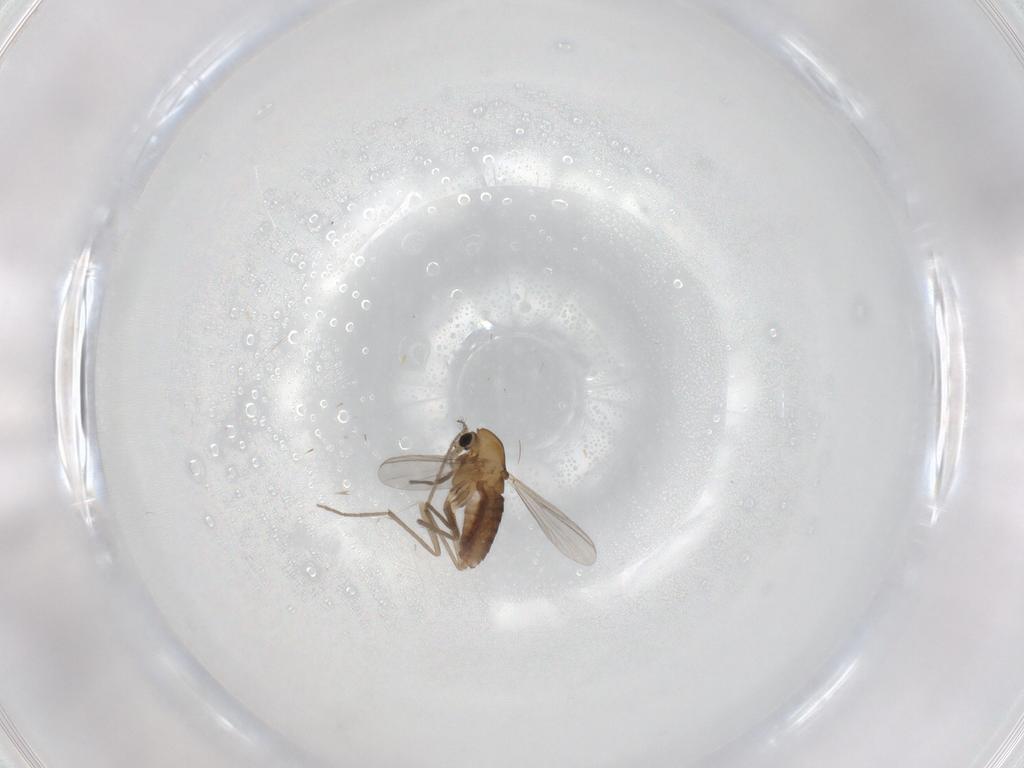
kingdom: Animalia
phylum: Arthropoda
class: Insecta
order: Diptera
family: Chironomidae
